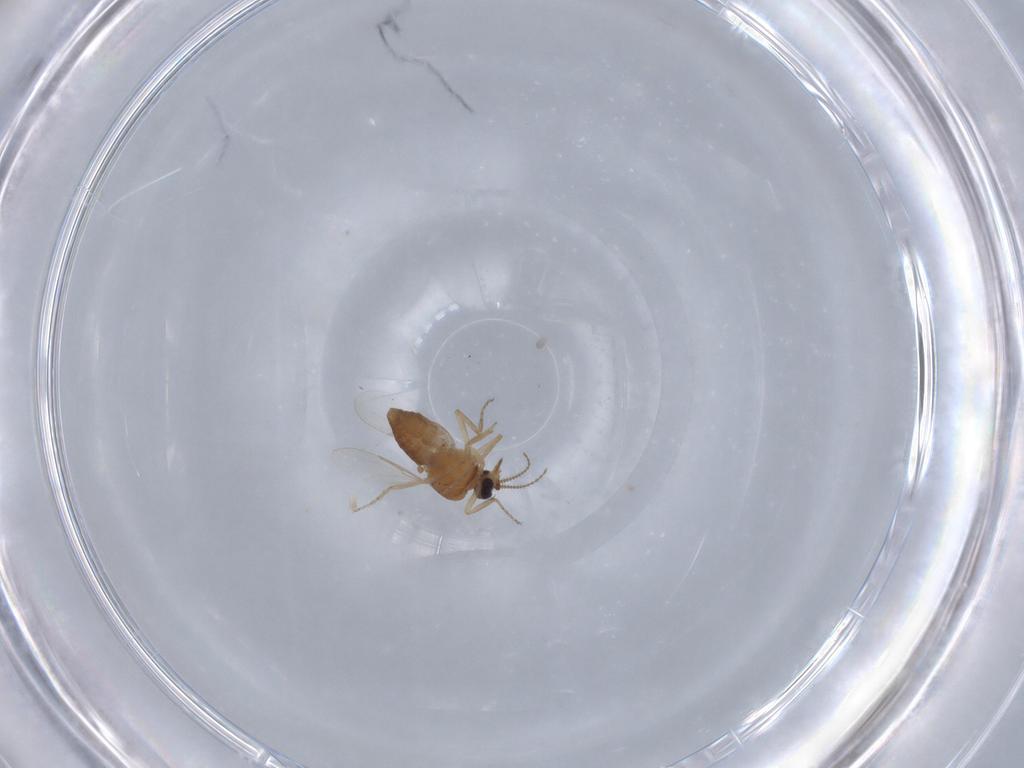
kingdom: Animalia
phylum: Arthropoda
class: Insecta
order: Diptera
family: Ceratopogonidae
